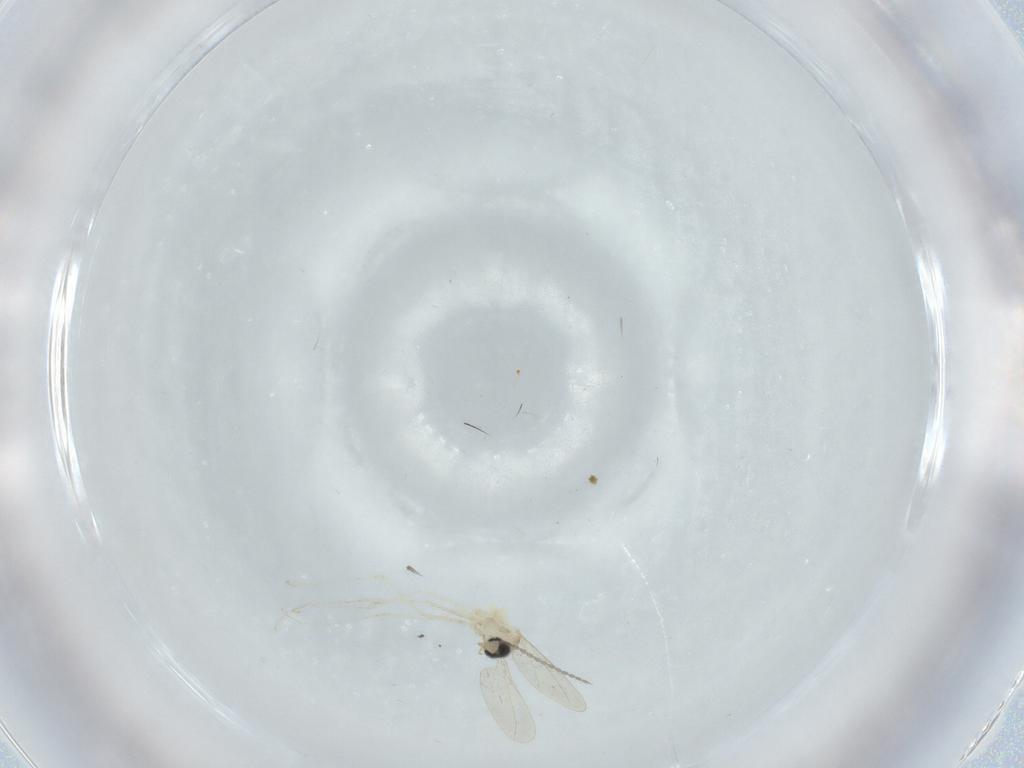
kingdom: Animalia
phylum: Arthropoda
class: Insecta
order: Diptera
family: Cecidomyiidae
